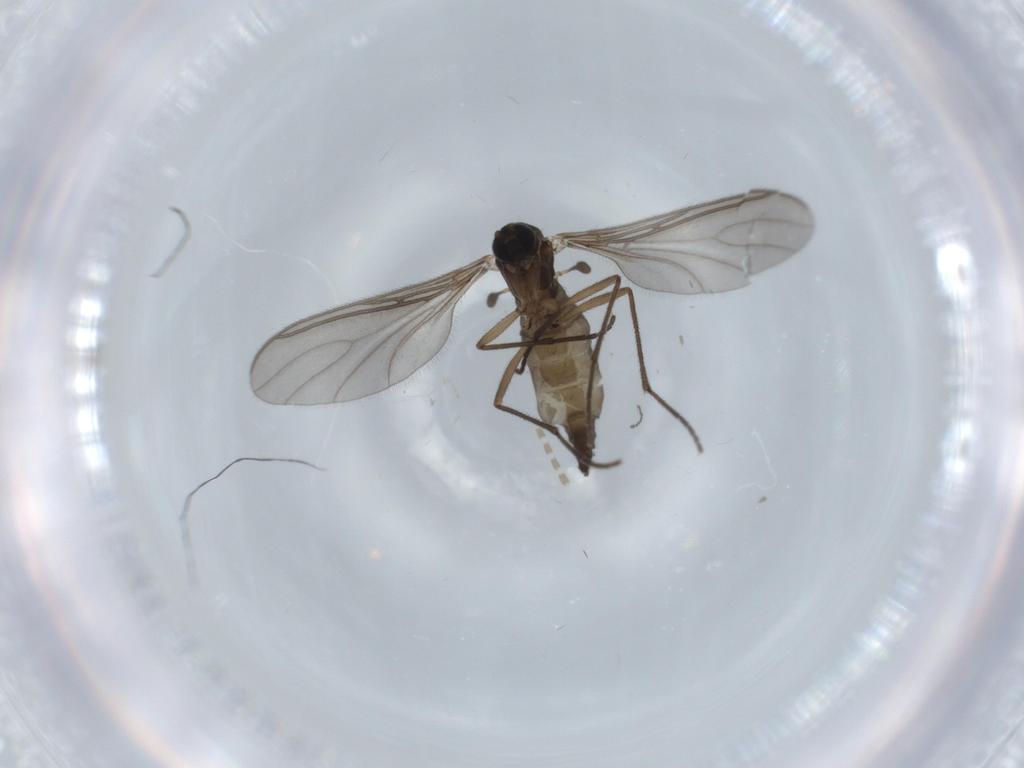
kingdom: Animalia
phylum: Arthropoda
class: Insecta
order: Diptera
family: Sciaridae
